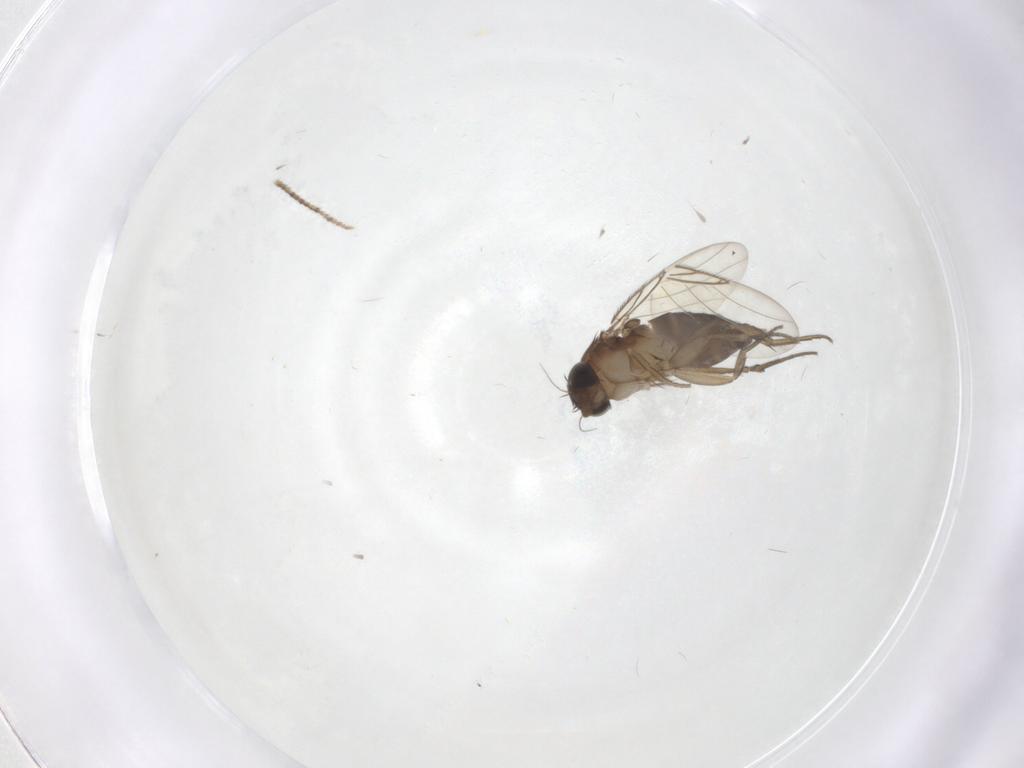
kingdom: Animalia
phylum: Arthropoda
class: Insecta
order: Diptera
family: Phoridae
